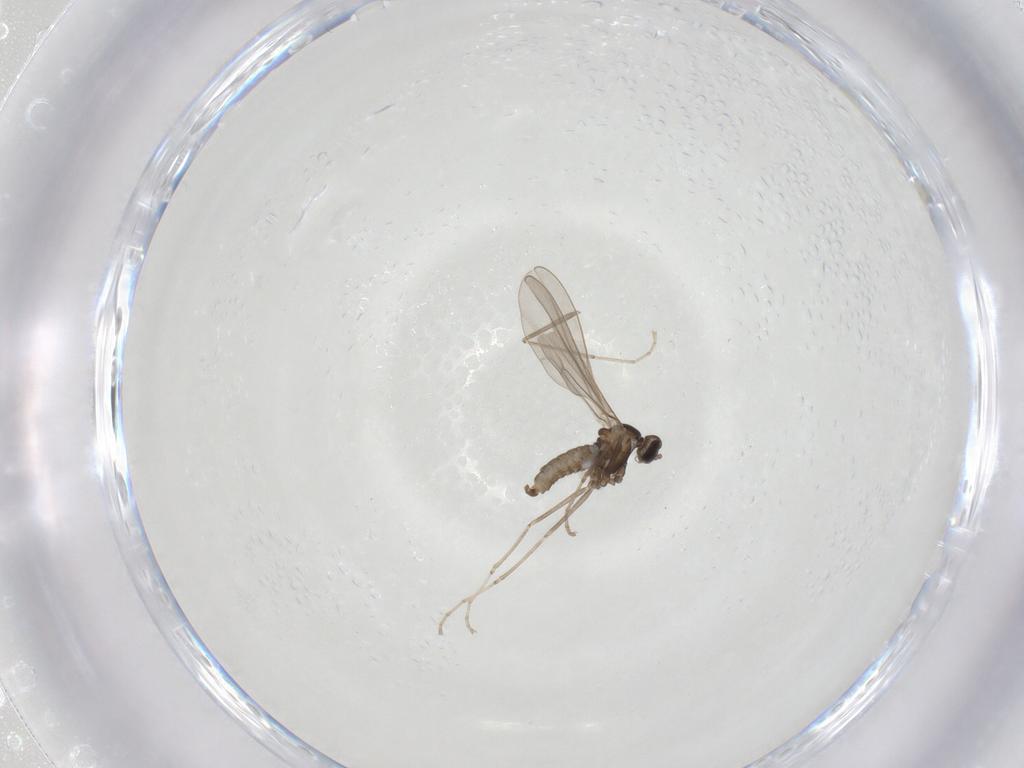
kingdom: Animalia
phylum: Arthropoda
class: Insecta
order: Diptera
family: Cecidomyiidae
